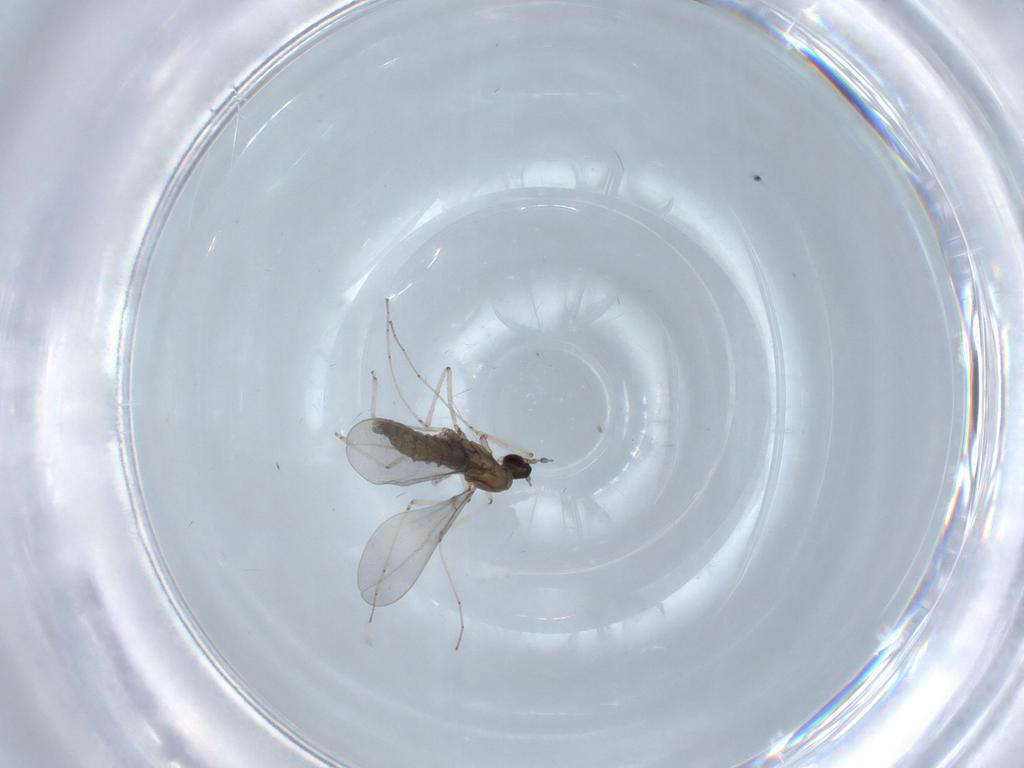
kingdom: Animalia
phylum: Arthropoda
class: Insecta
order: Diptera
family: Cecidomyiidae
